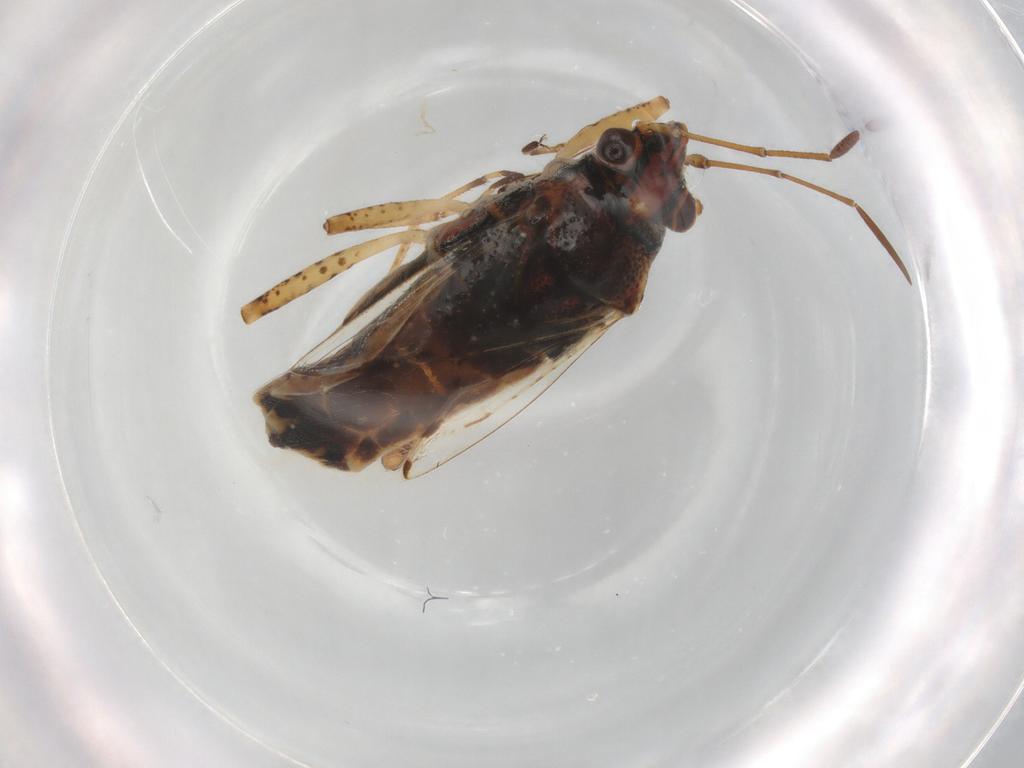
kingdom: Animalia
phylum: Arthropoda
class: Insecta
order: Hemiptera
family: Lygaeidae
